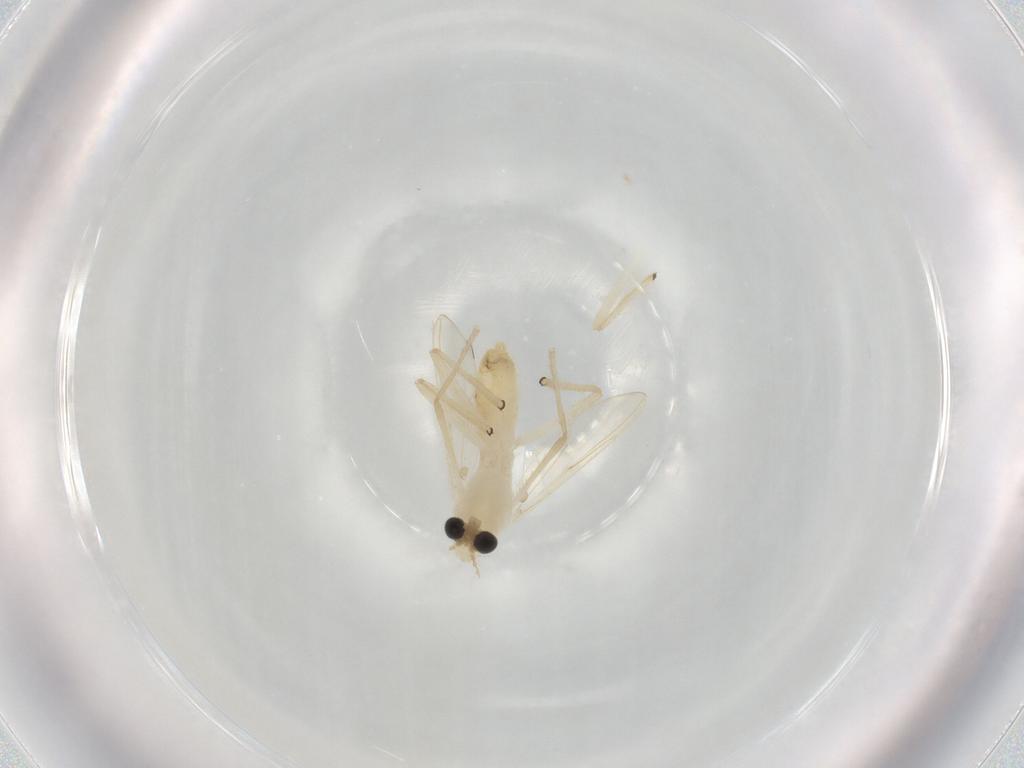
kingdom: Animalia
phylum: Arthropoda
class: Insecta
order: Diptera
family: Chironomidae
